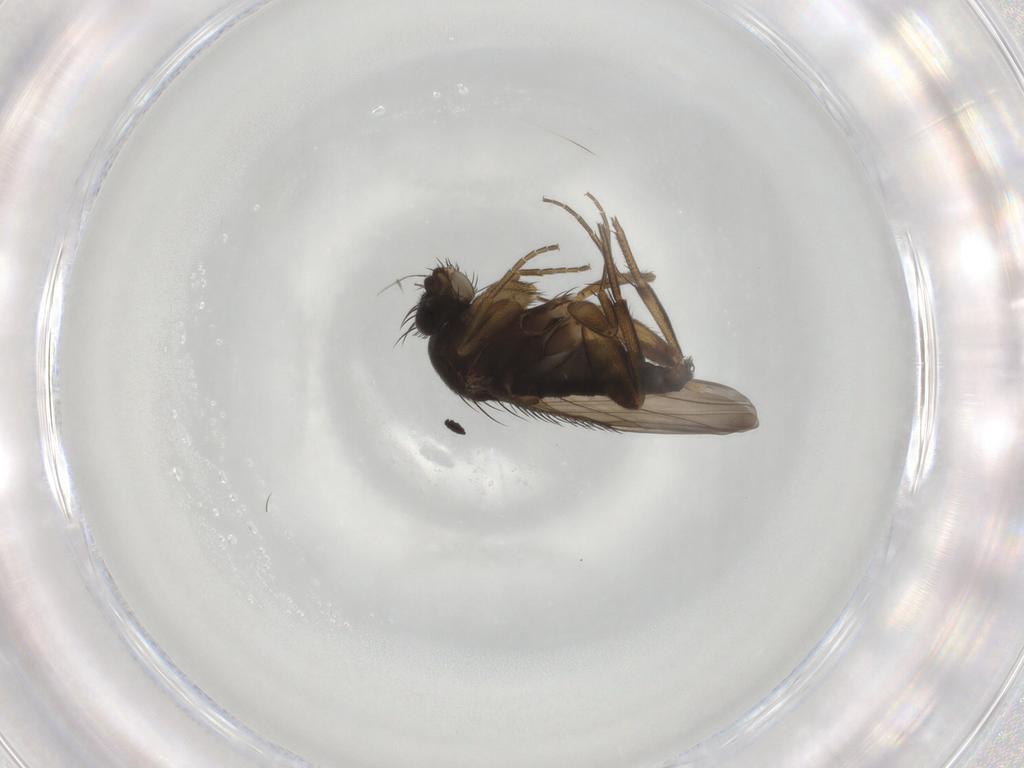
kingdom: Animalia
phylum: Arthropoda
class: Insecta
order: Diptera
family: Phoridae
